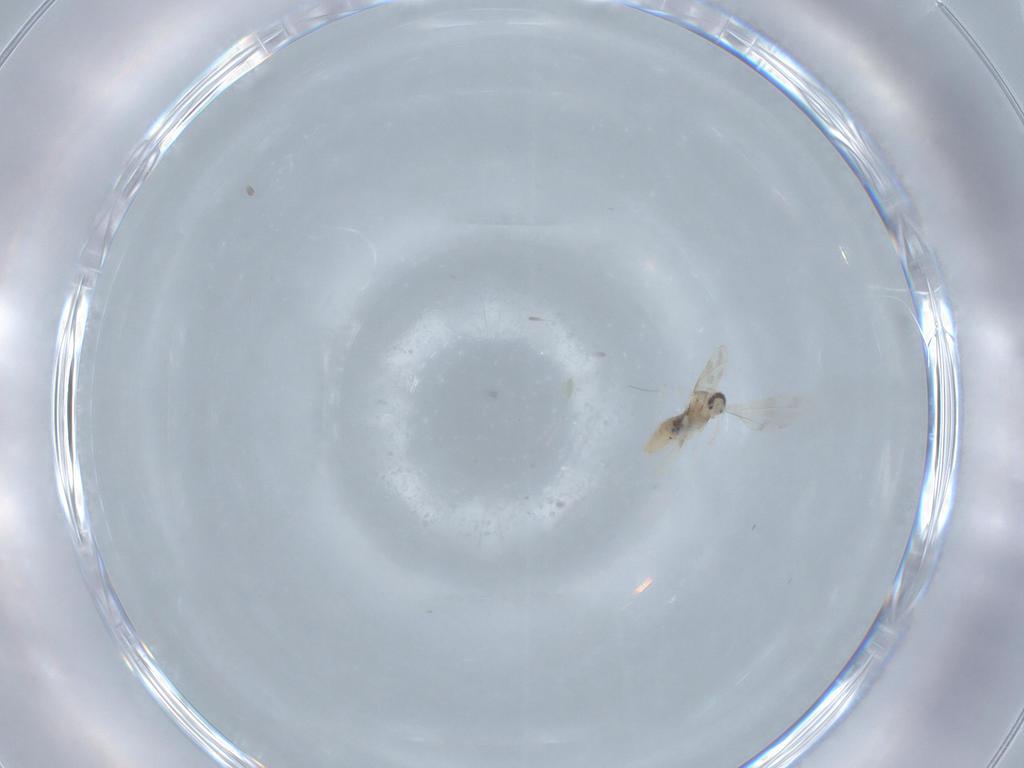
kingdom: Animalia
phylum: Arthropoda
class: Insecta
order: Diptera
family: Cecidomyiidae
